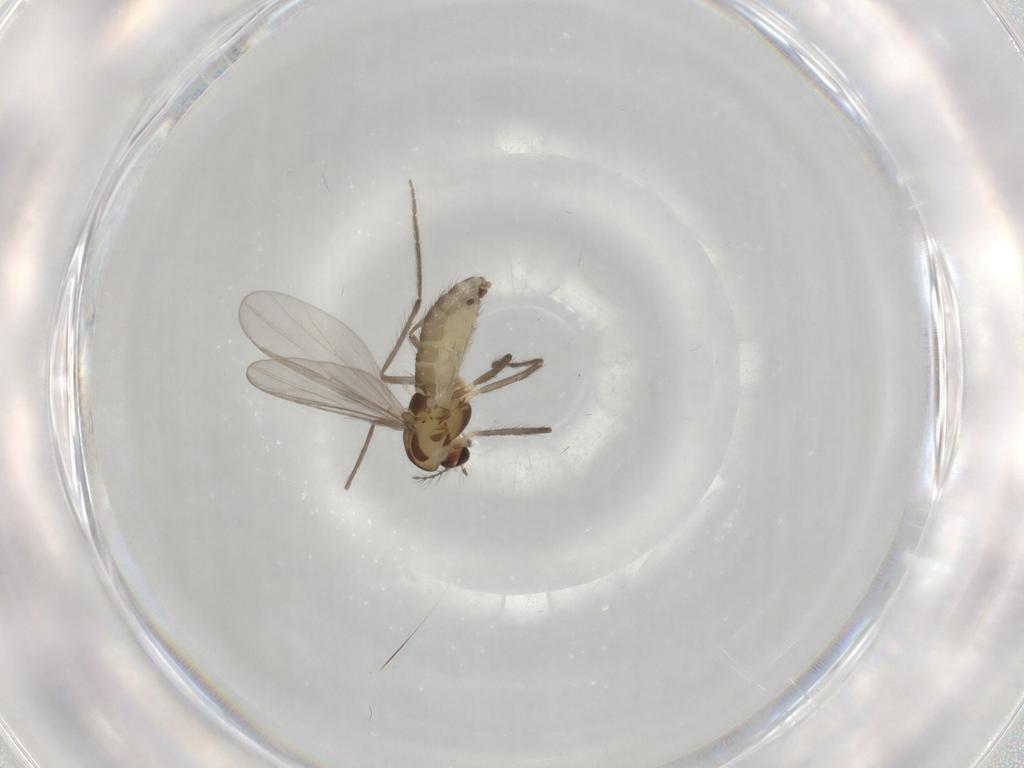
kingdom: Animalia
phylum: Arthropoda
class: Insecta
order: Diptera
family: Chironomidae
